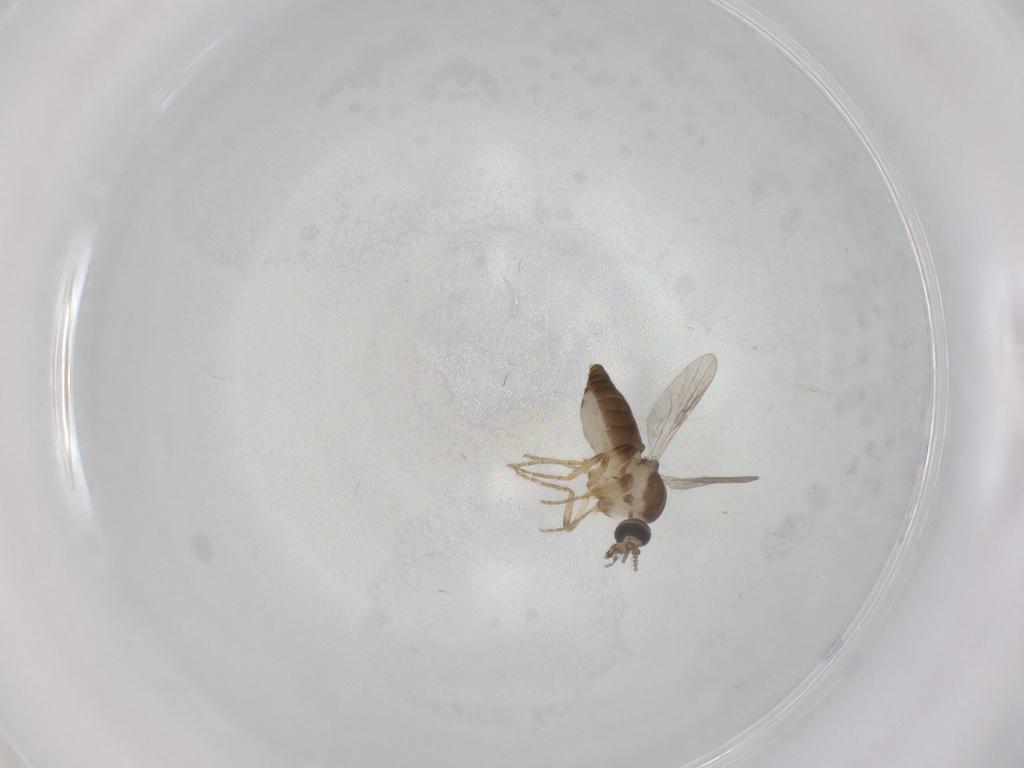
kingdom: Animalia
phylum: Arthropoda
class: Insecta
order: Diptera
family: Ceratopogonidae
